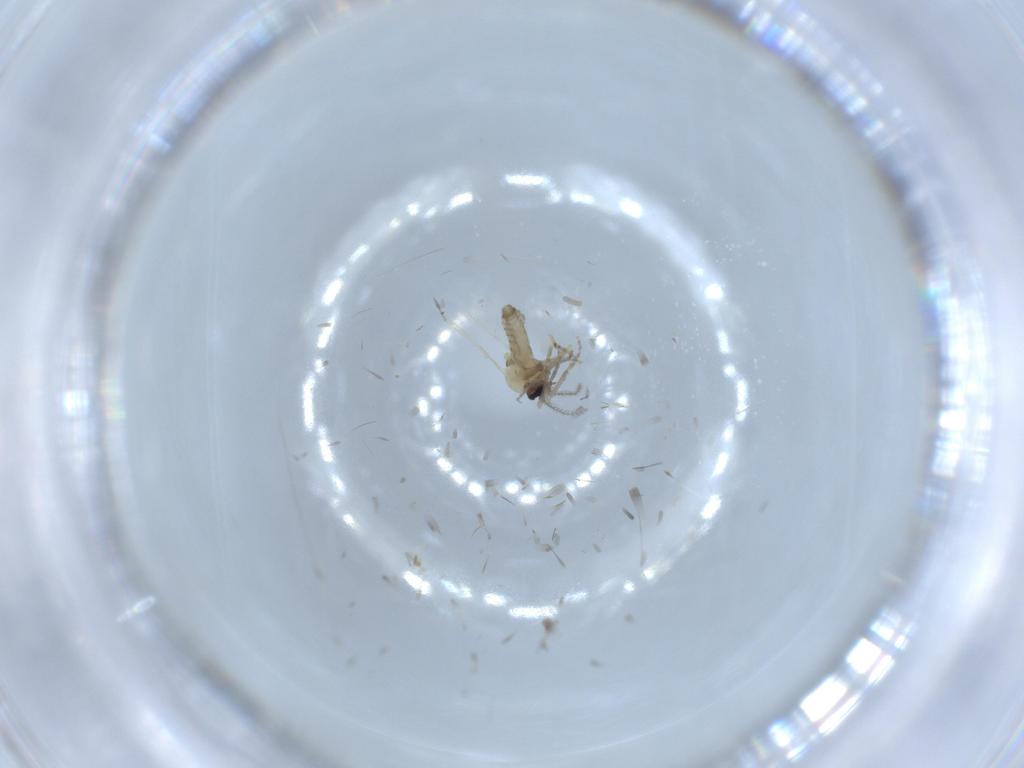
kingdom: Animalia
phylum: Arthropoda
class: Insecta
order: Diptera
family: Ceratopogonidae
